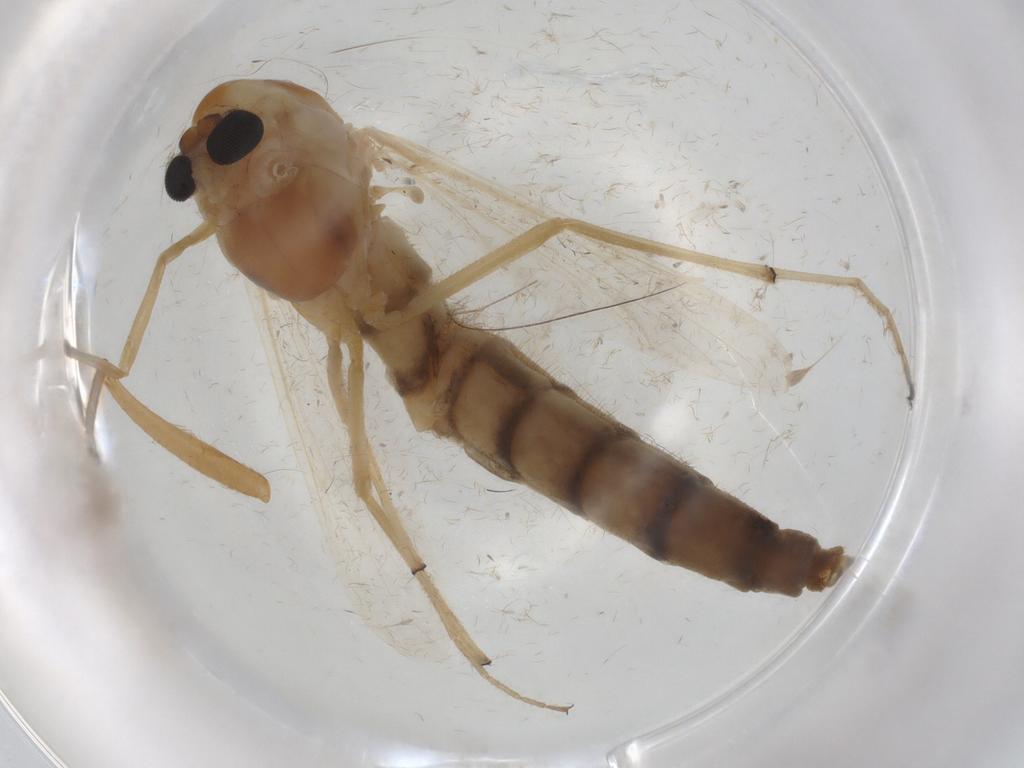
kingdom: Animalia
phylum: Arthropoda
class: Insecta
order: Diptera
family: Chironomidae
